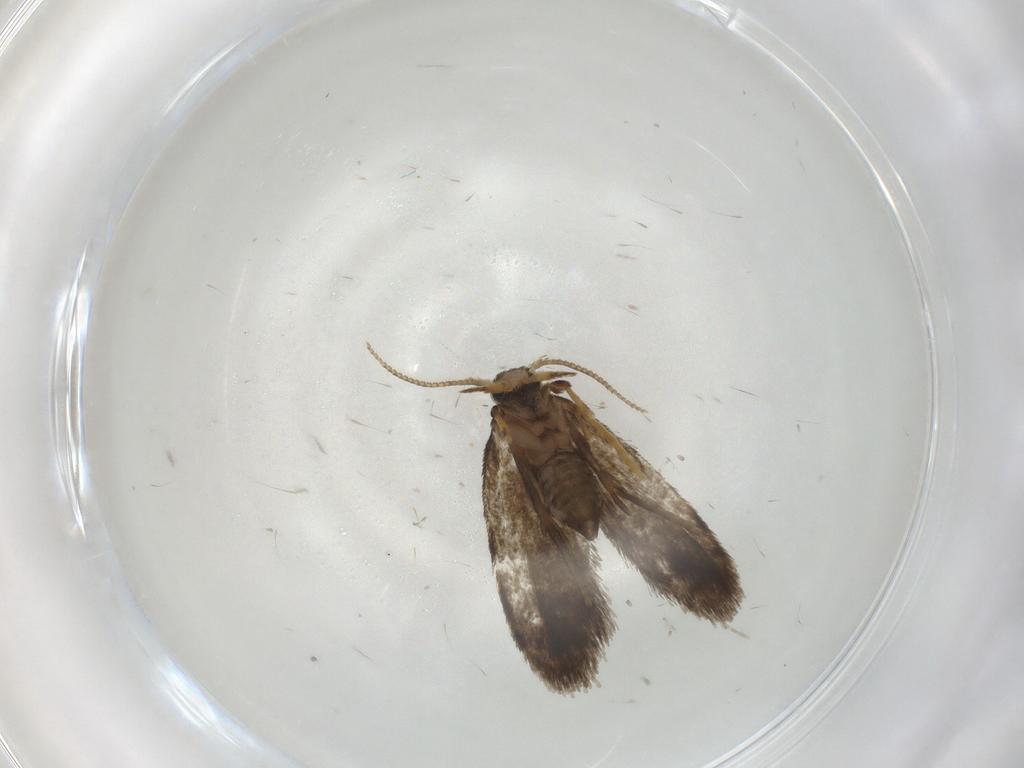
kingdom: Animalia
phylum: Arthropoda
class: Insecta
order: Lepidoptera
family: Psychidae
